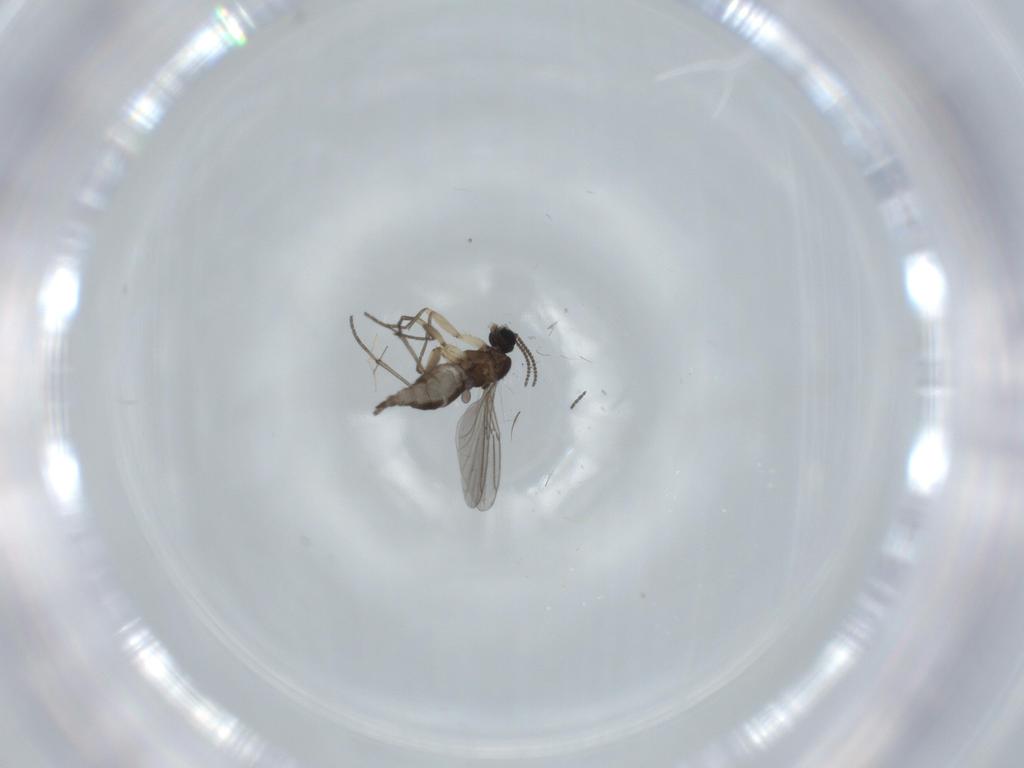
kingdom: Animalia
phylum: Arthropoda
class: Insecta
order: Diptera
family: Sciaridae
